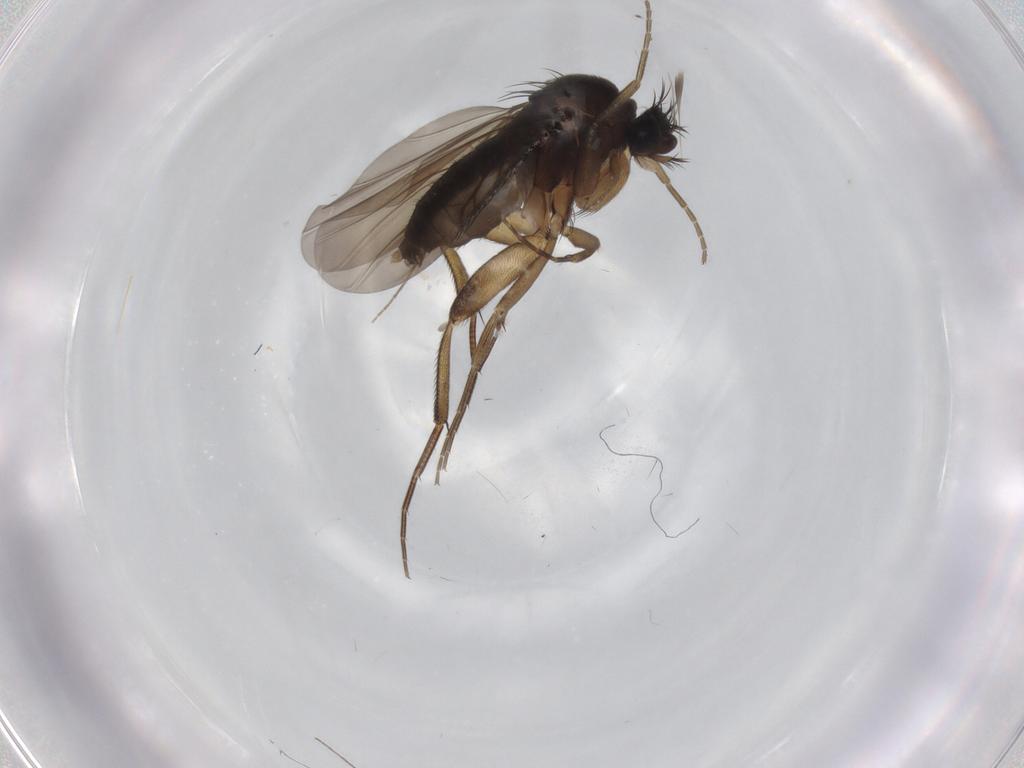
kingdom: Animalia
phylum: Arthropoda
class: Insecta
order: Diptera
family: Phoridae
